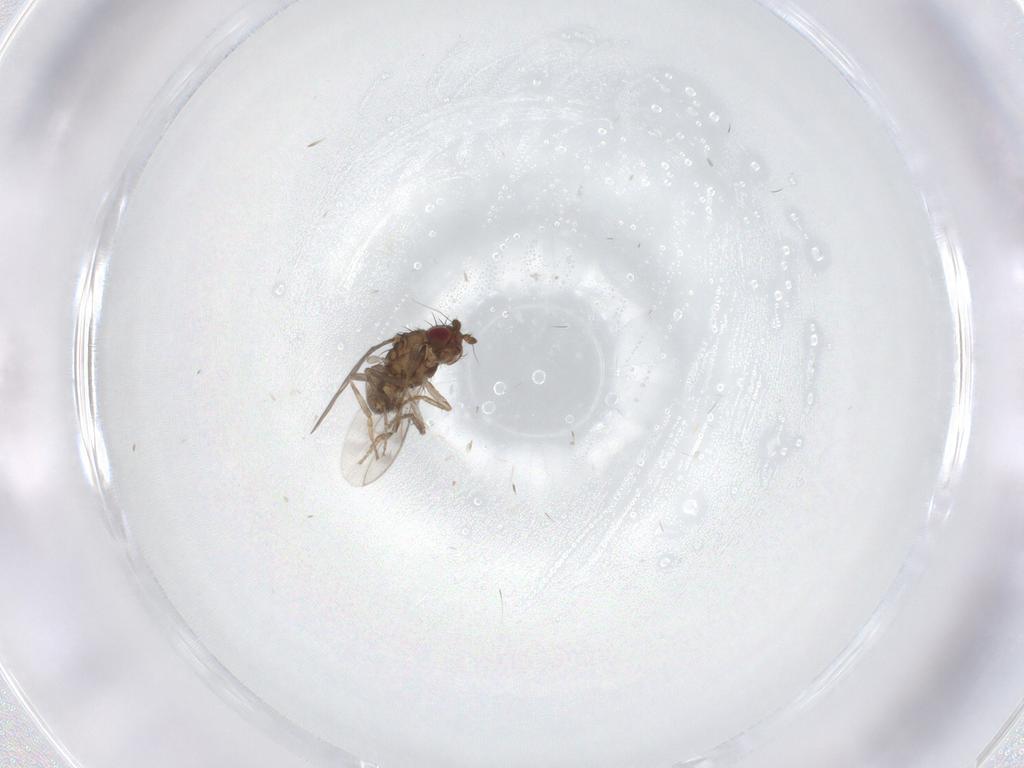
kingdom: Animalia
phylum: Arthropoda
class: Insecta
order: Diptera
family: Sphaeroceridae
